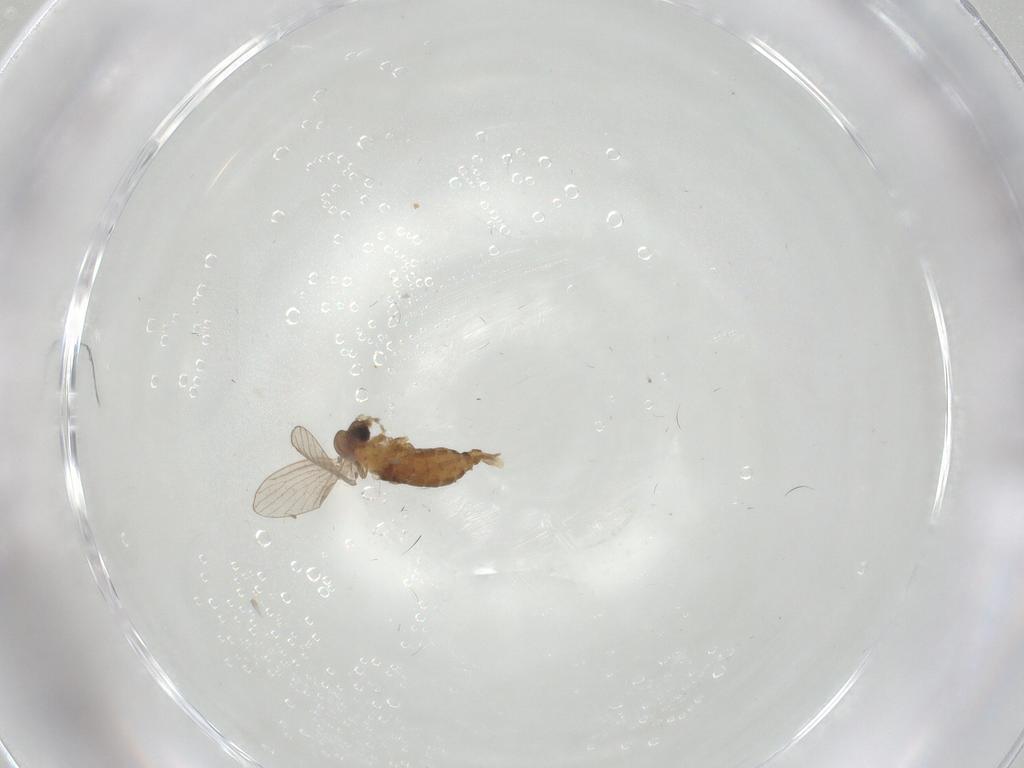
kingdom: Animalia
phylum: Arthropoda
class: Insecta
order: Diptera
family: Psychodidae
